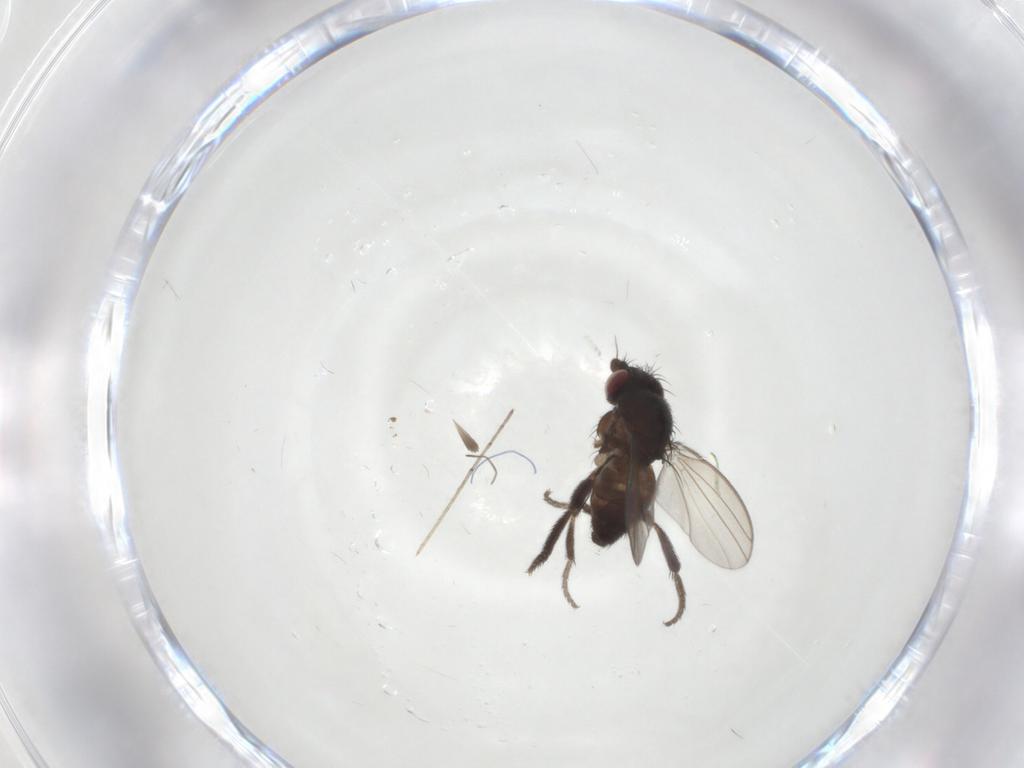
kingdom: Animalia
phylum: Arthropoda
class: Insecta
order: Diptera
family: Milichiidae
